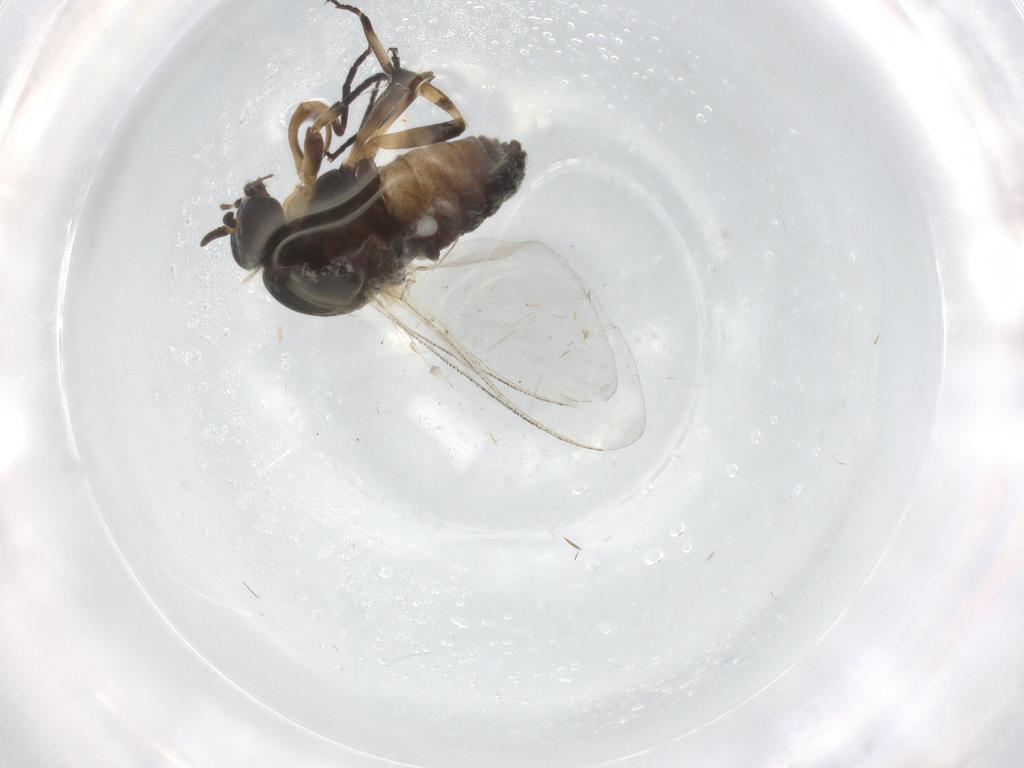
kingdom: Animalia
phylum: Arthropoda
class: Insecta
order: Diptera
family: Cecidomyiidae
